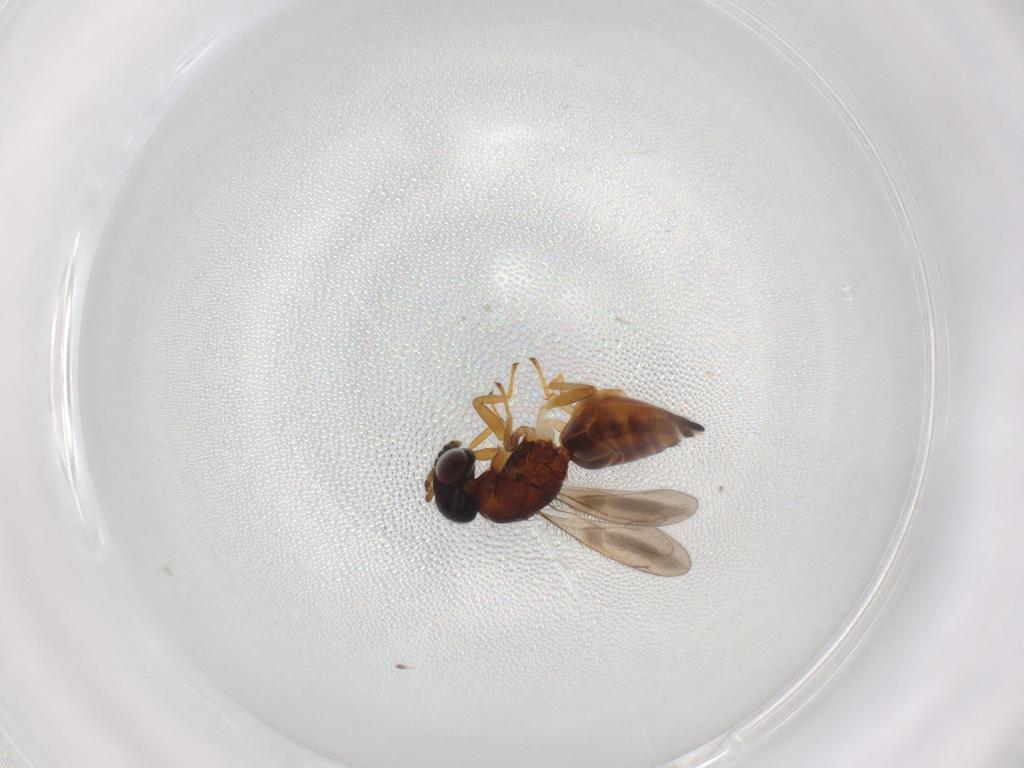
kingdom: Animalia
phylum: Arthropoda
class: Insecta
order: Hymenoptera
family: Eulophidae
